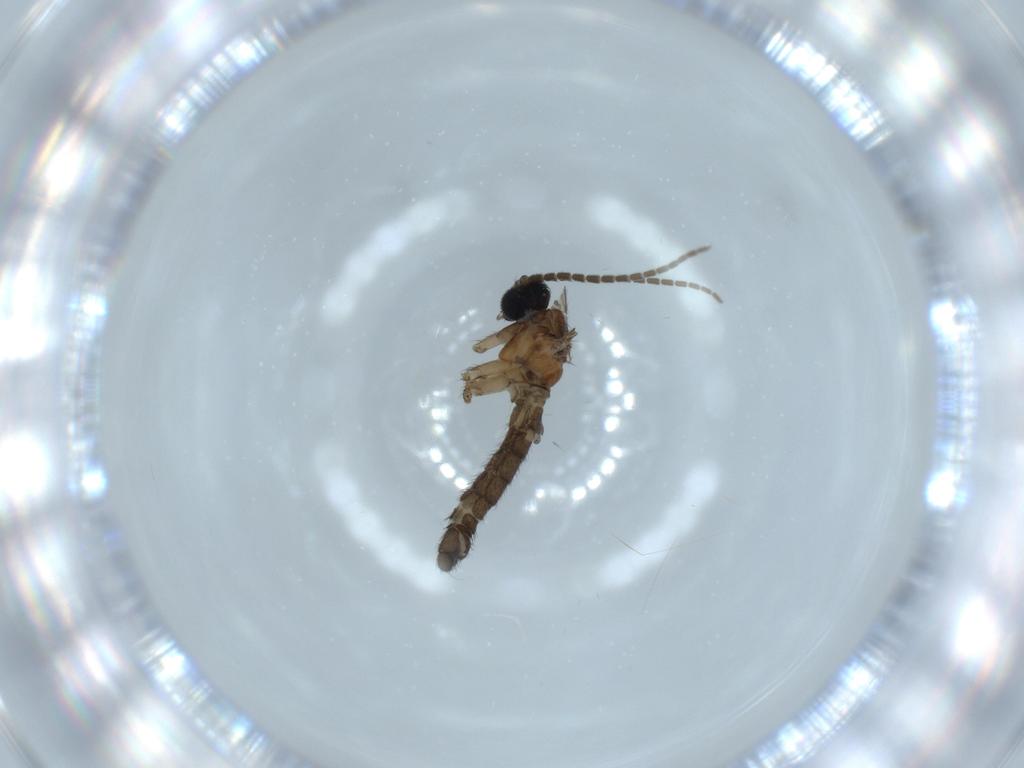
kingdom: Animalia
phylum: Arthropoda
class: Insecta
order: Diptera
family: Sciaridae
